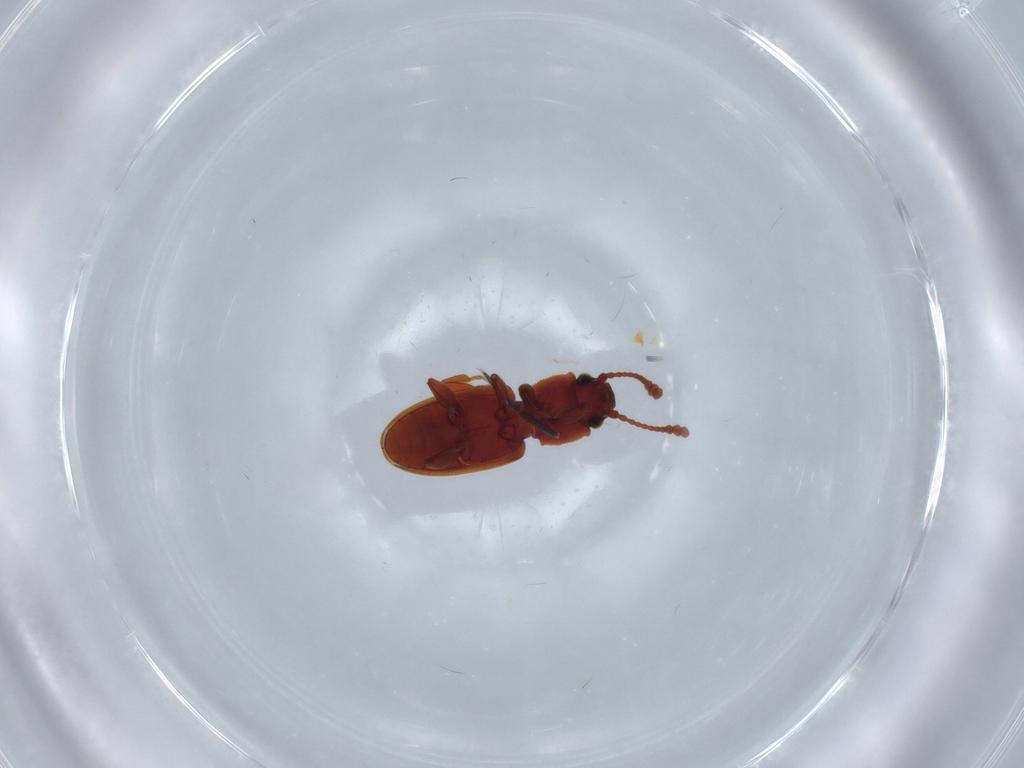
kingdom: Animalia
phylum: Arthropoda
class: Insecta
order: Coleoptera
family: Silvanidae
